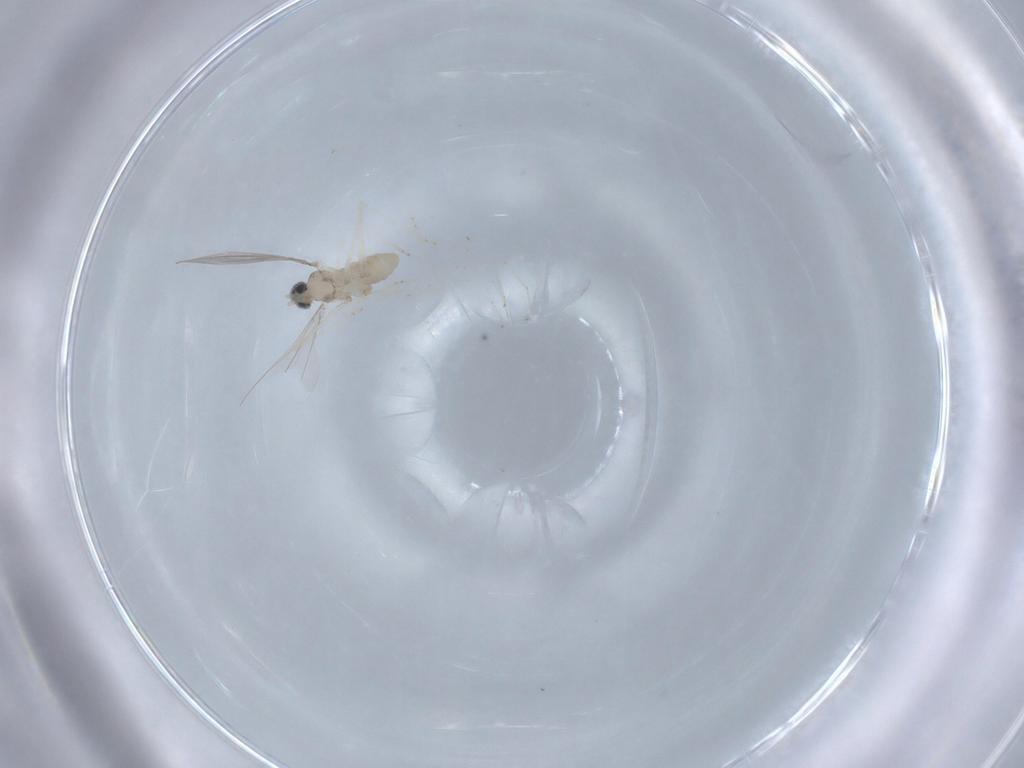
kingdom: Animalia
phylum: Arthropoda
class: Insecta
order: Diptera
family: Cecidomyiidae
